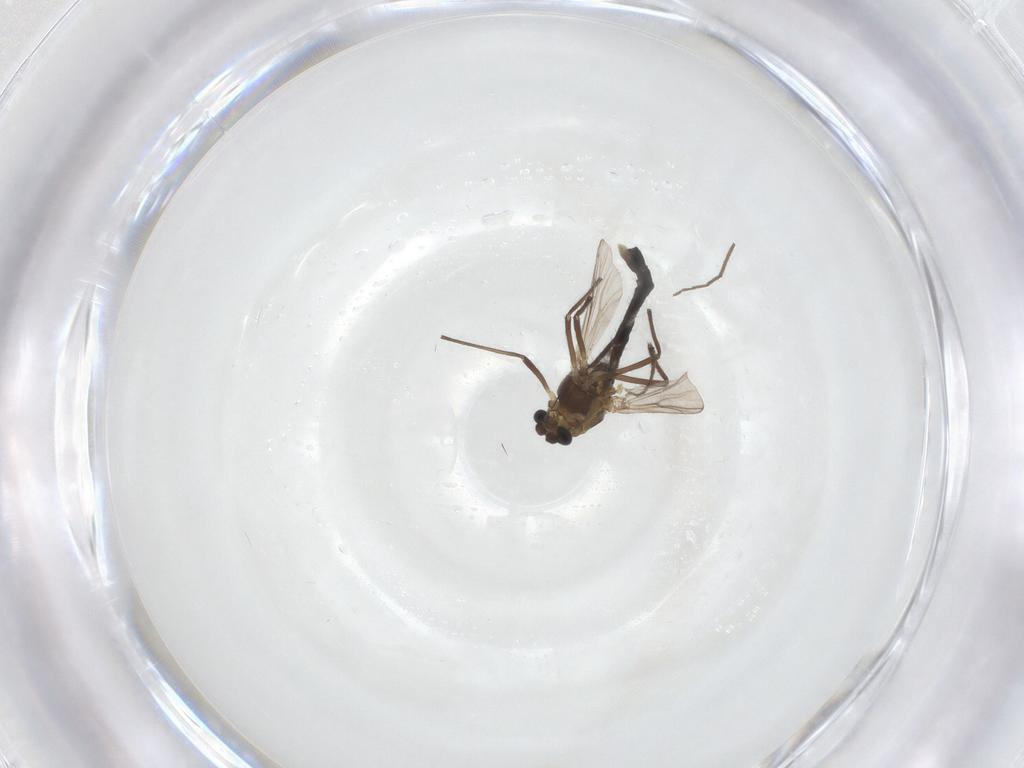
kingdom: Animalia
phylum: Arthropoda
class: Insecta
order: Diptera
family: Chironomidae
